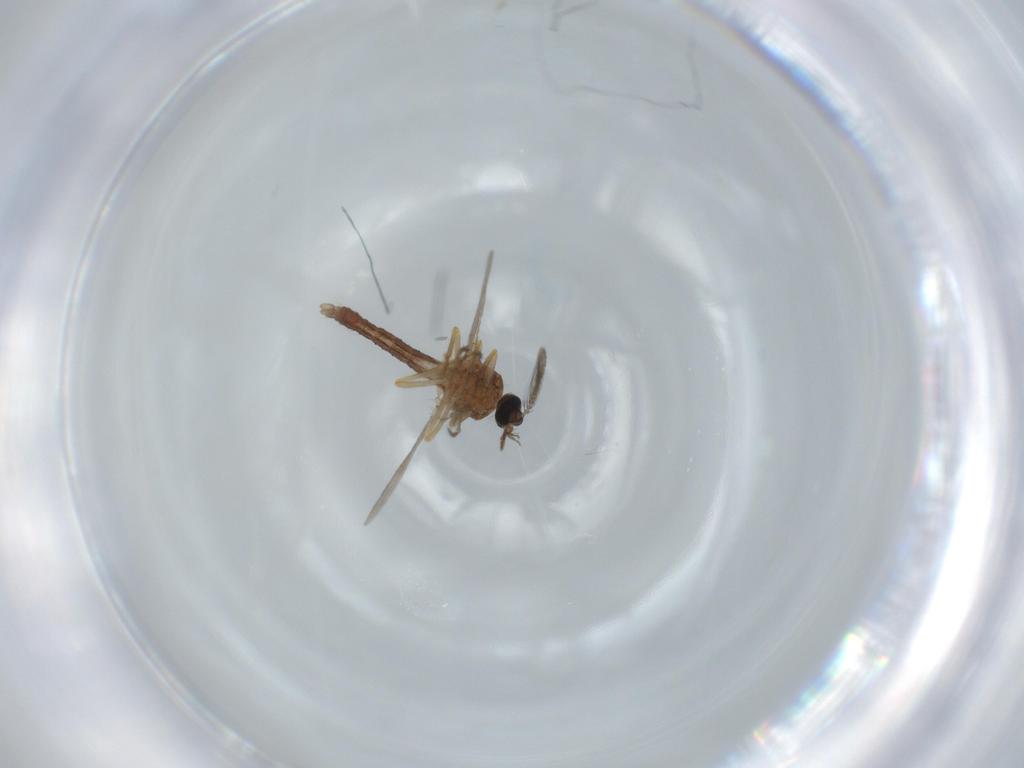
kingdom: Animalia
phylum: Arthropoda
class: Insecta
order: Diptera
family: Ceratopogonidae
